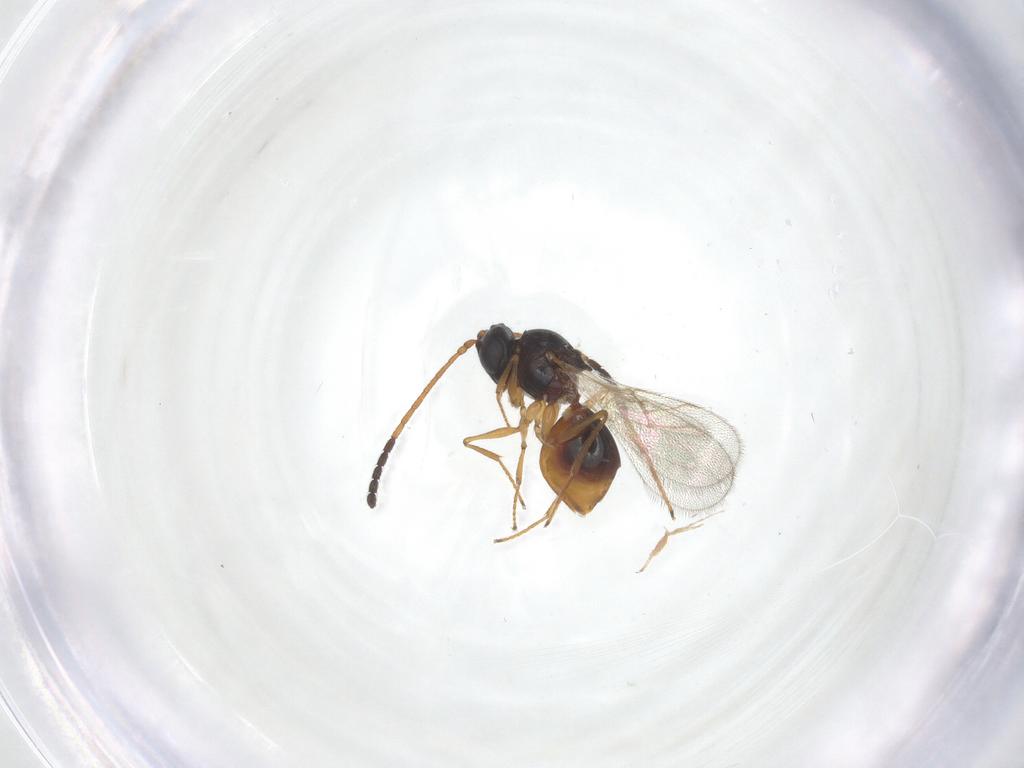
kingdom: Animalia
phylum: Arthropoda
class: Insecta
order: Hymenoptera
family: Figitidae
